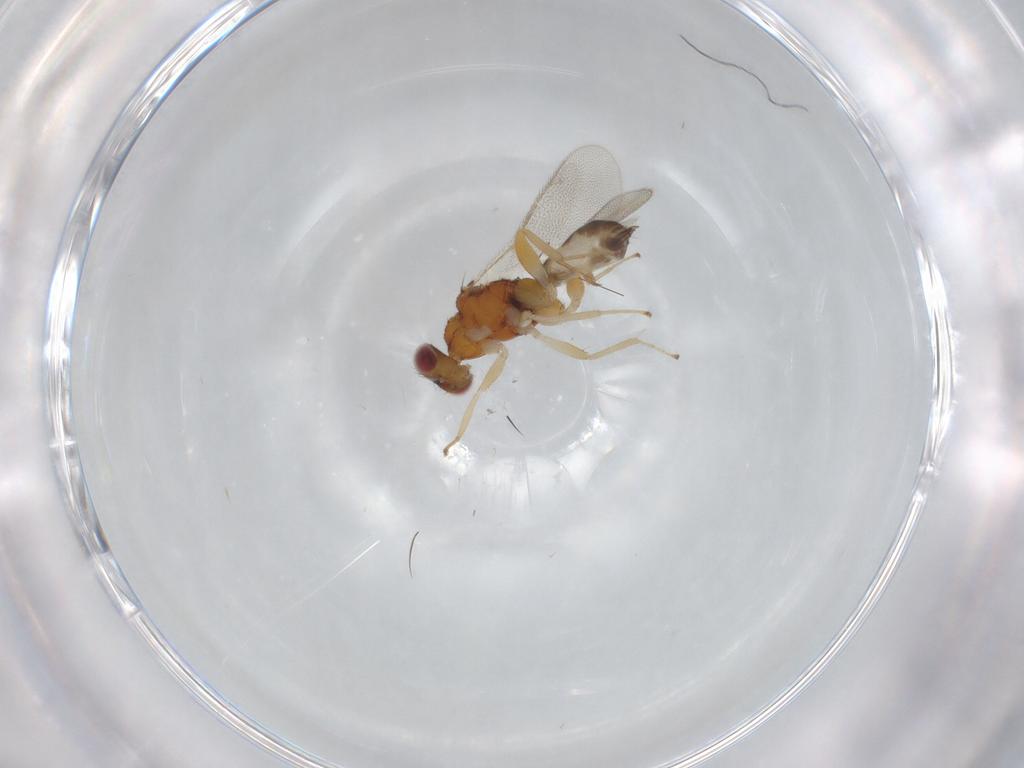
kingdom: Animalia
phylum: Arthropoda
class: Insecta
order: Hymenoptera
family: Eulophidae
